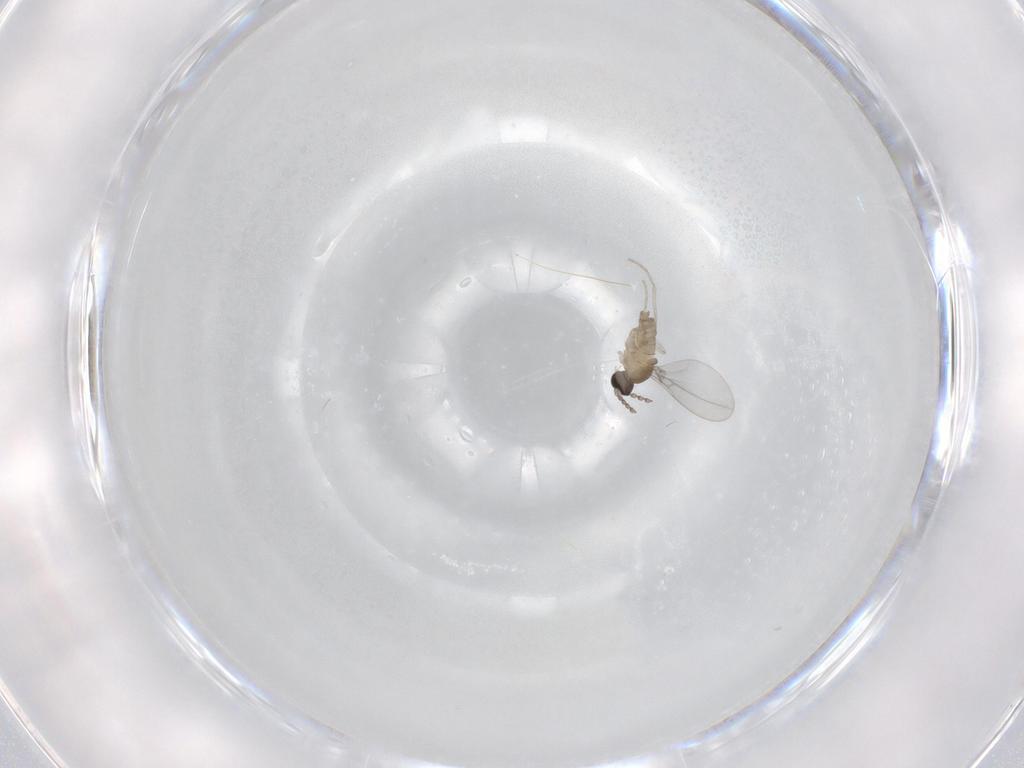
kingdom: Animalia
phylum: Arthropoda
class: Insecta
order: Diptera
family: Cecidomyiidae
